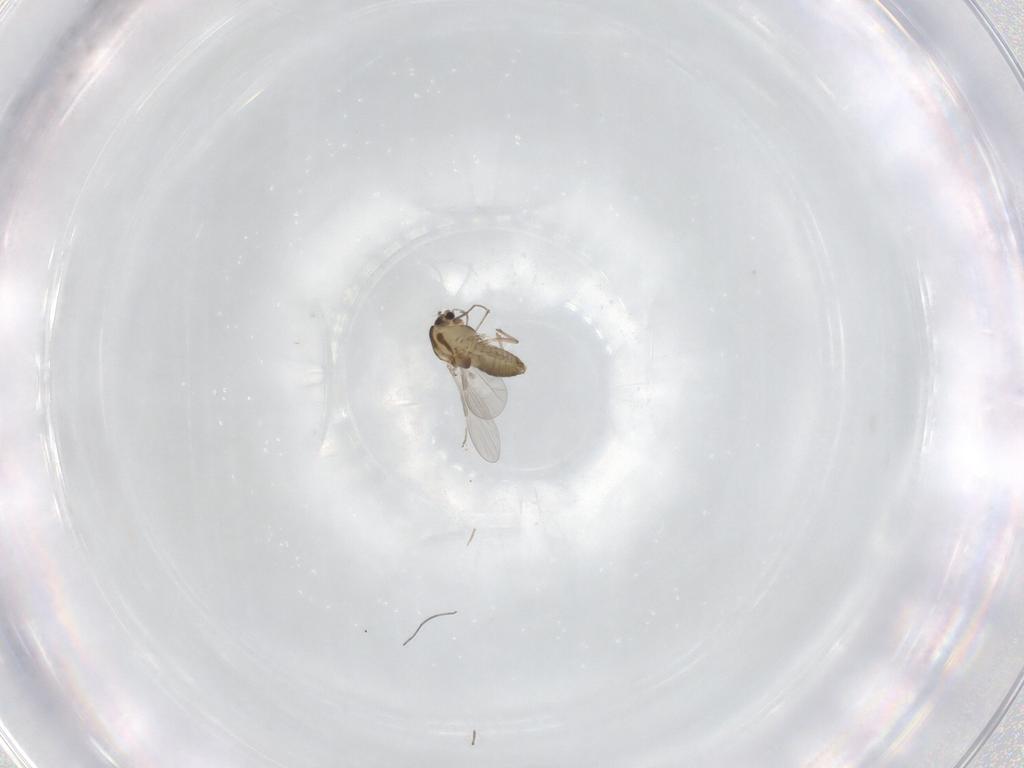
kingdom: Animalia
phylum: Arthropoda
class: Insecta
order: Diptera
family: Chironomidae
